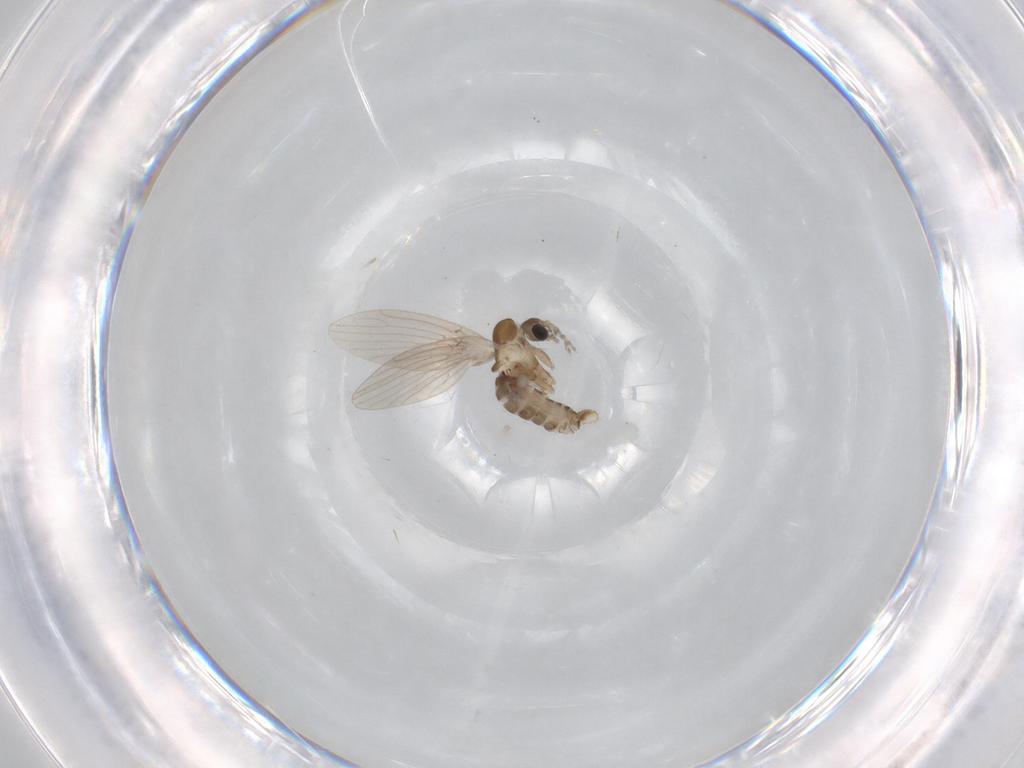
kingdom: Animalia
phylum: Arthropoda
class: Insecta
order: Diptera
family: Psychodidae
